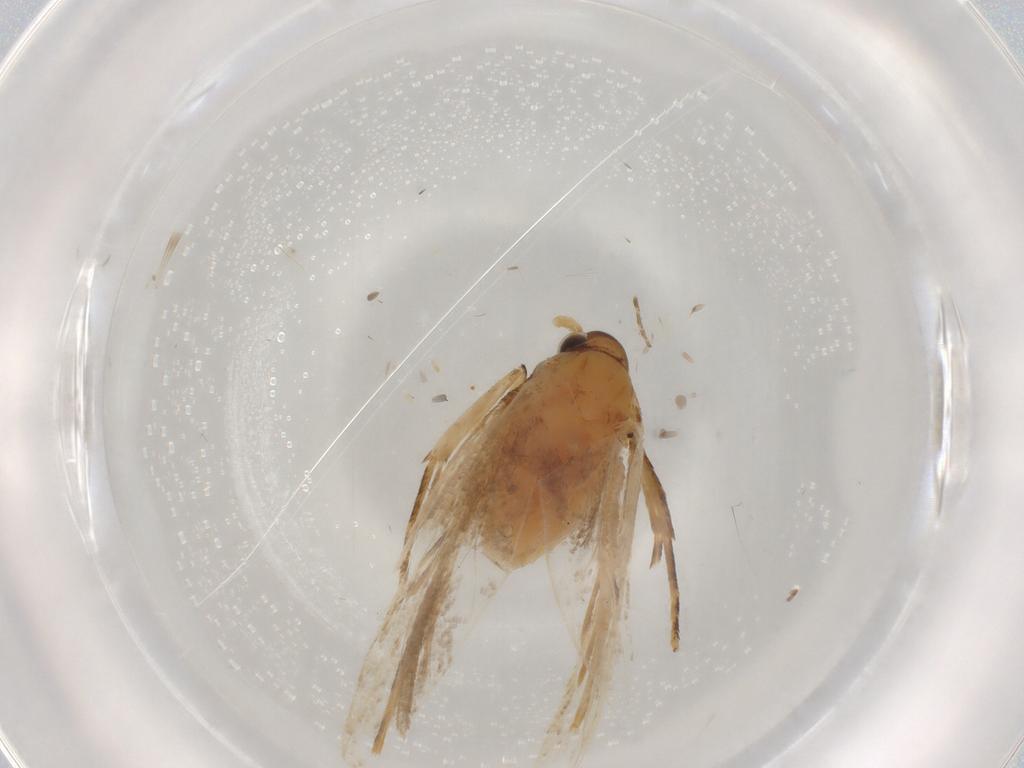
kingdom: Animalia
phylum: Arthropoda
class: Insecta
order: Lepidoptera
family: Lecithoceridae
